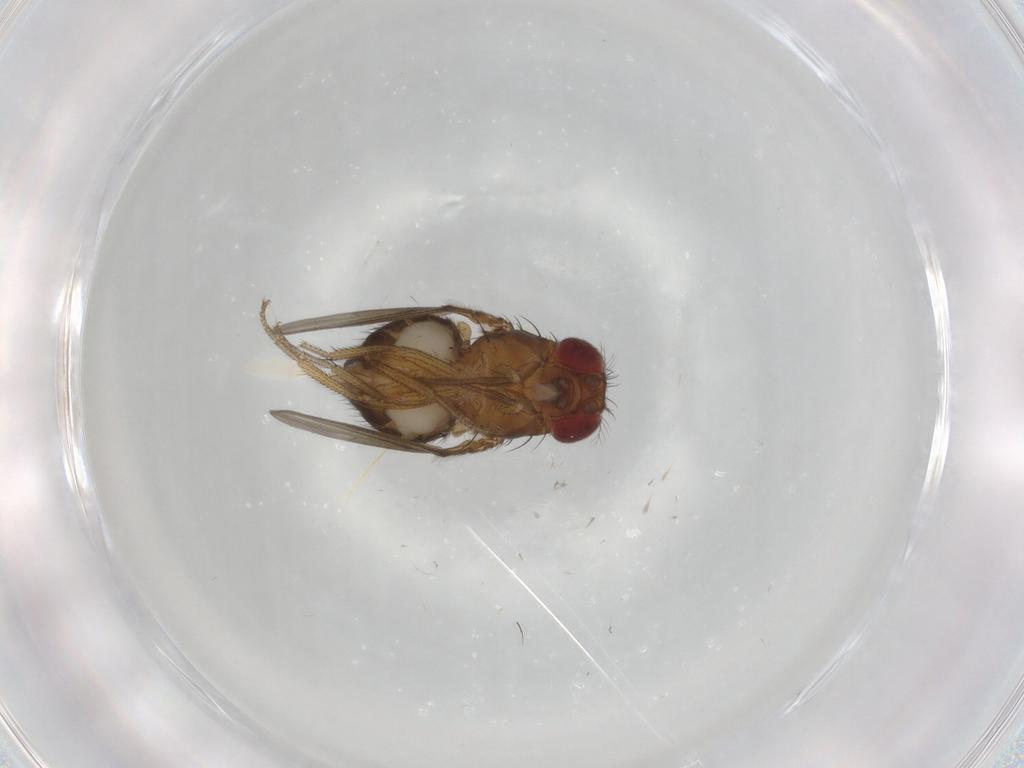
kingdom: Animalia
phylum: Arthropoda
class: Insecta
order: Diptera
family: Drosophilidae
